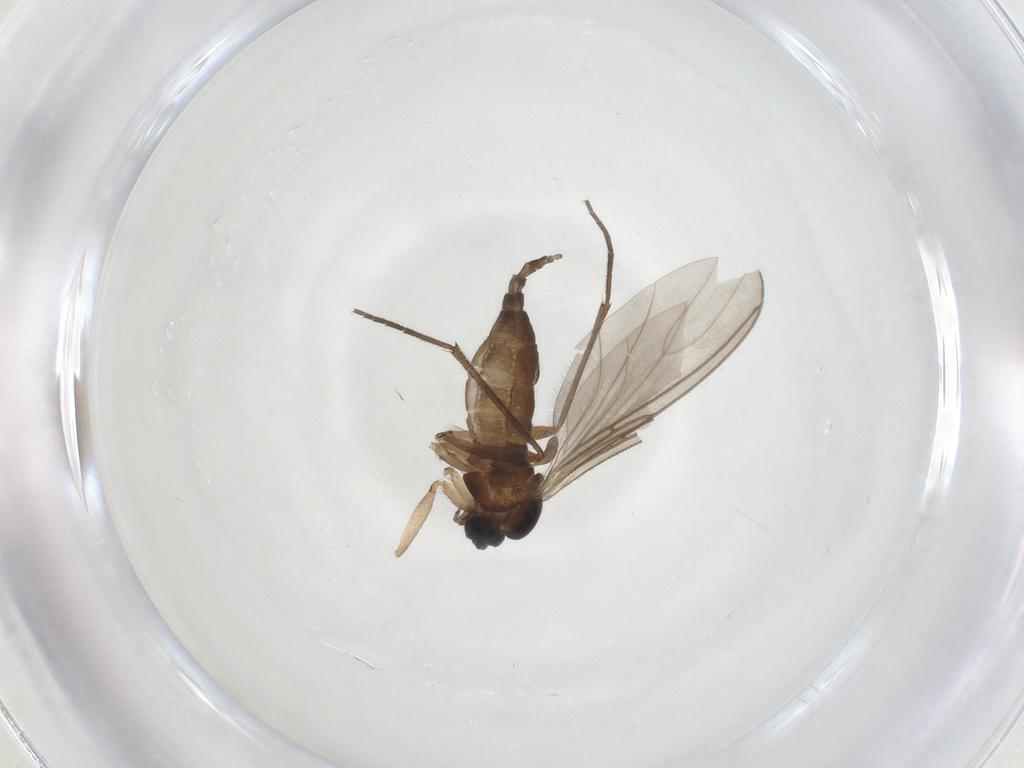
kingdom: Animalia
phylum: Arthropoda
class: Insecta
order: Diptera
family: Sciaridae
